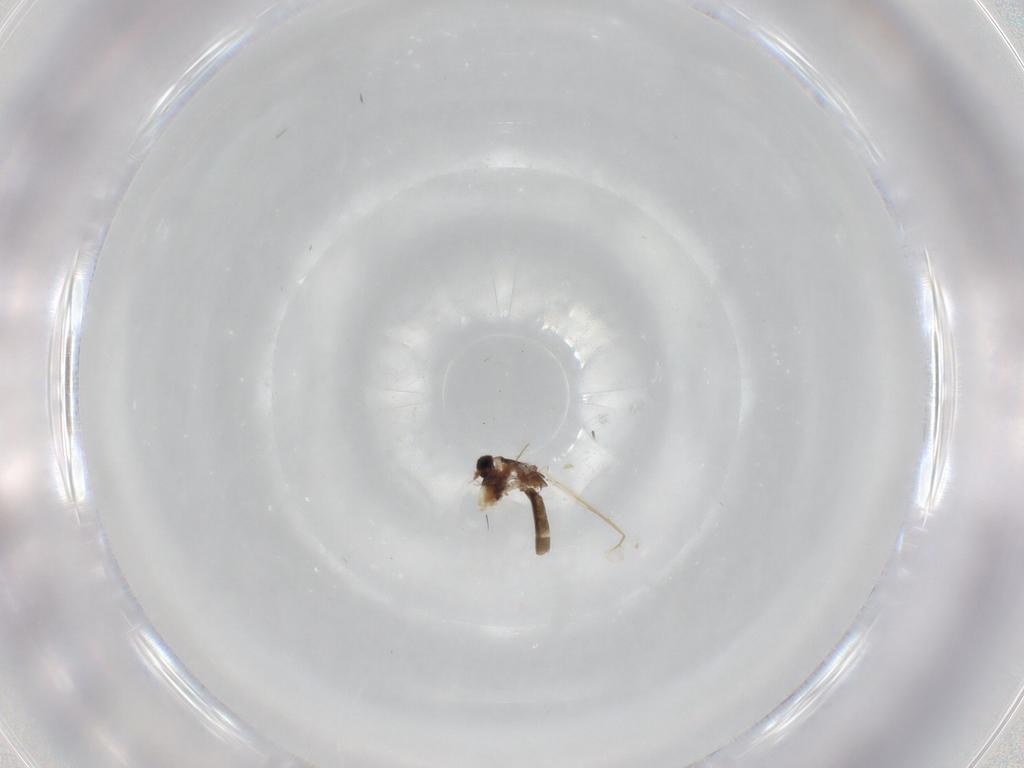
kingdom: Animalia
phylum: Arthropoda
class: Insecta
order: Diptera
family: Chironomidae
